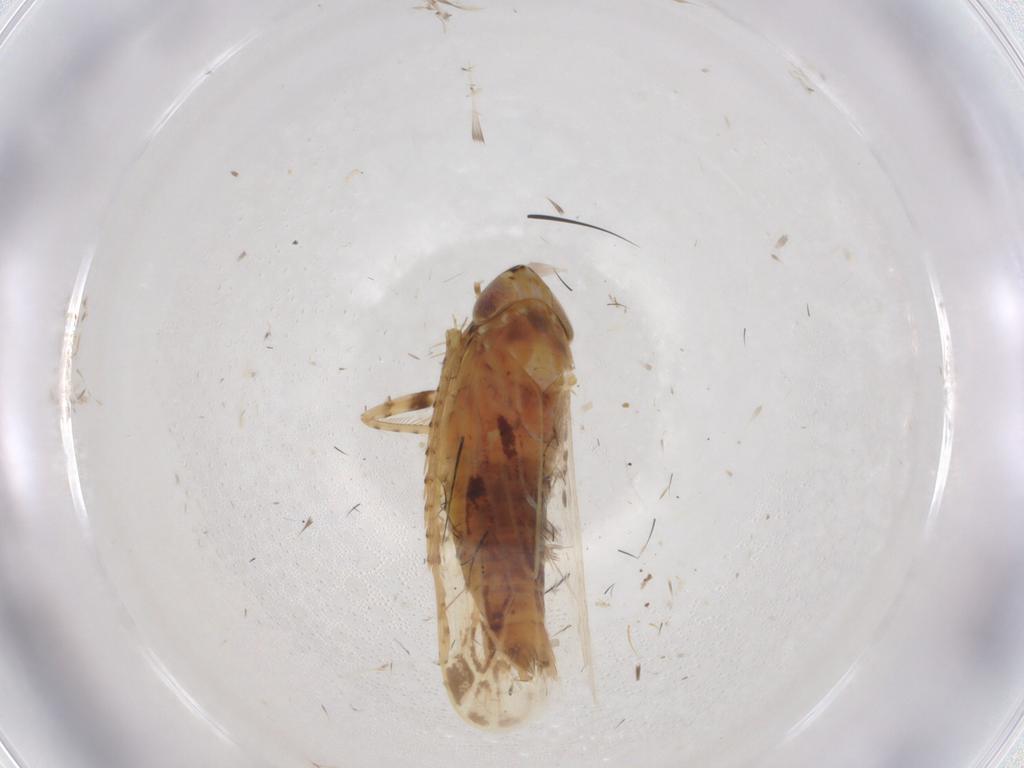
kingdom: Animalia
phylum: Arthropoda
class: Insecta
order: Hemiptera
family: Cicadellidae
